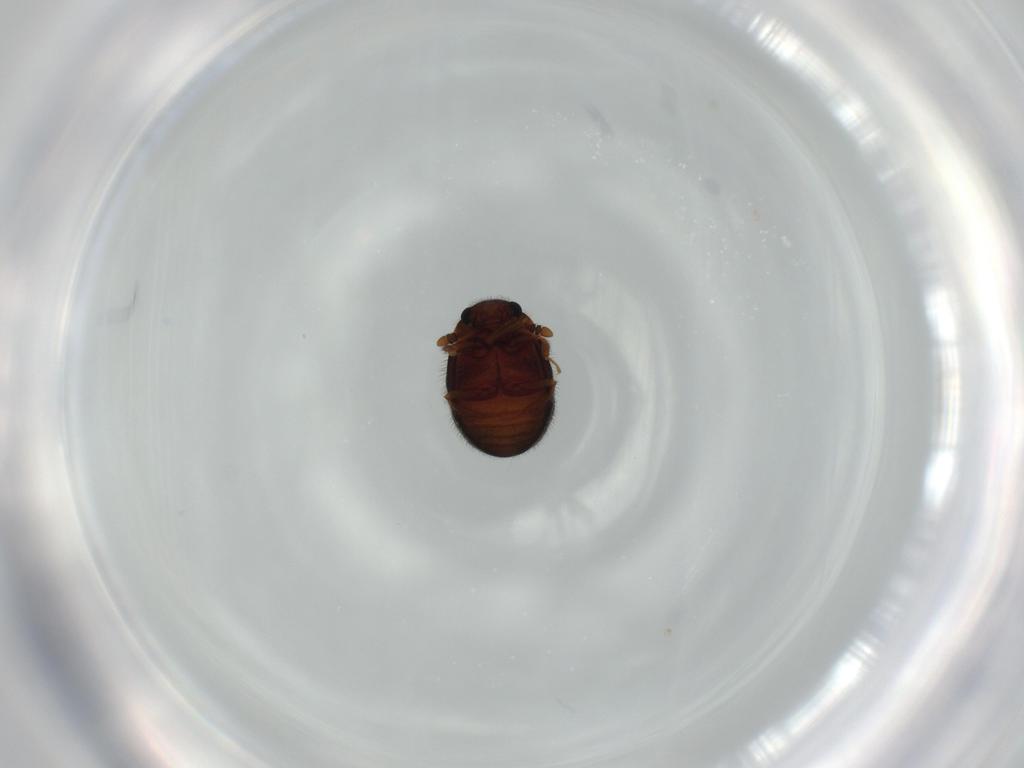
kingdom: Animalia
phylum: Arthropoda
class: Insecta
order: Coleoptera
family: Sphindidae
